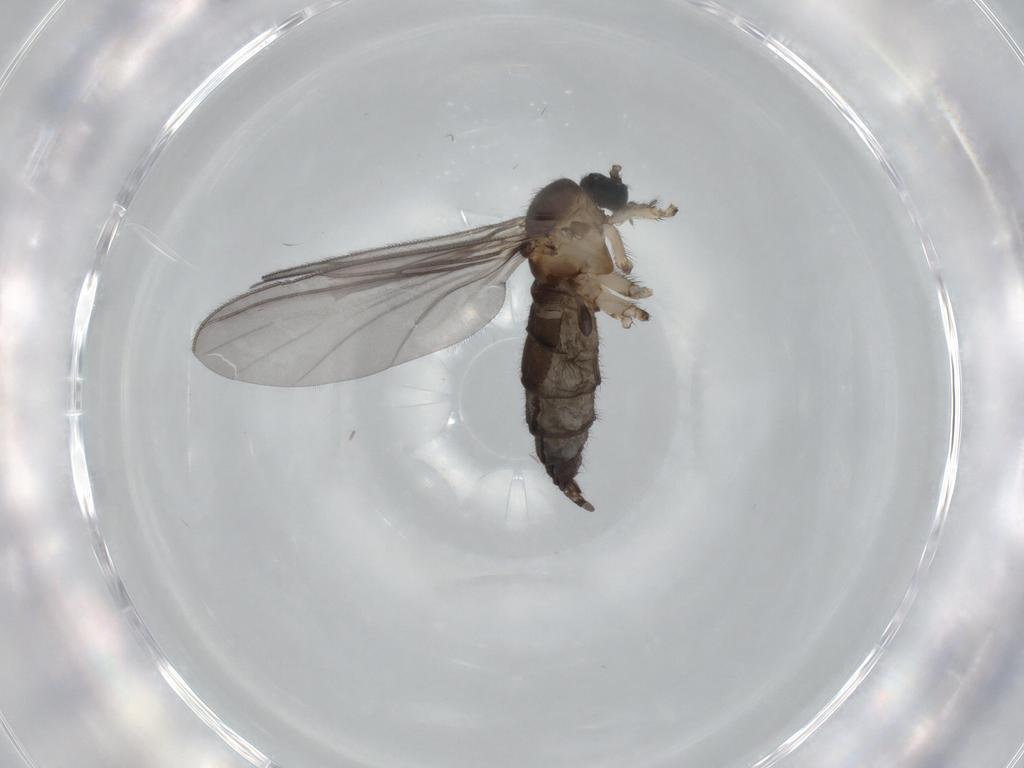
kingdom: Animalia
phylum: Arthropoda
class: Insecta
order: Diptera
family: Sciaridae
